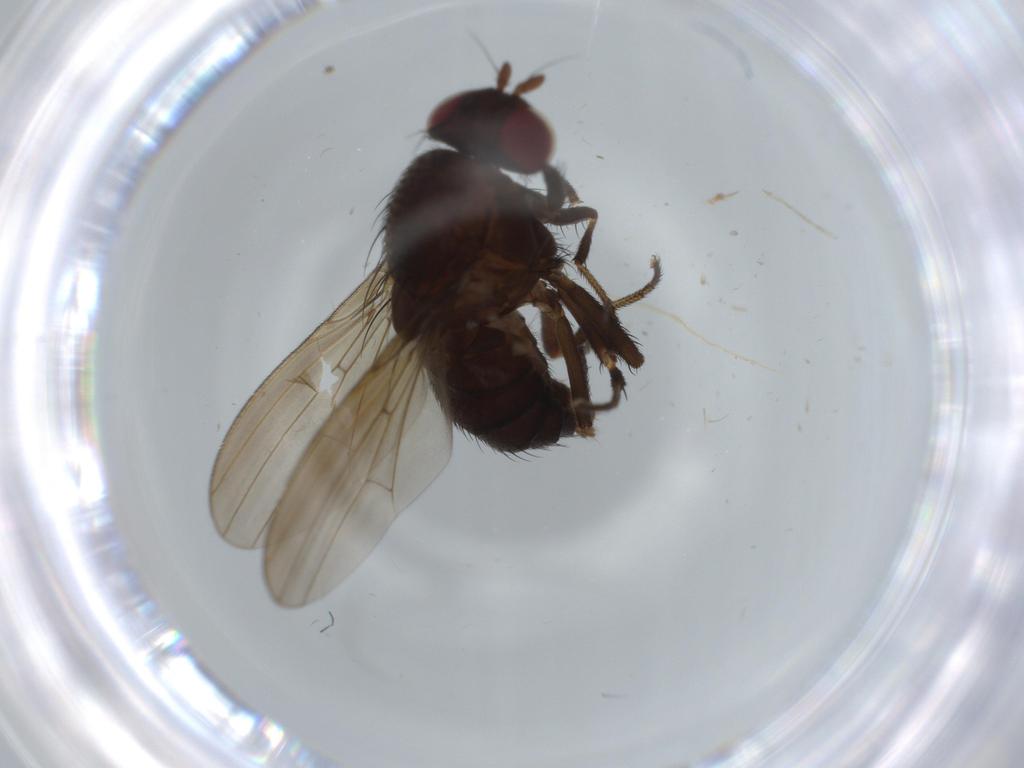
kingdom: Animalia
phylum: Arthropoda
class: Insecta
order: Diptera
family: Tabanidae
